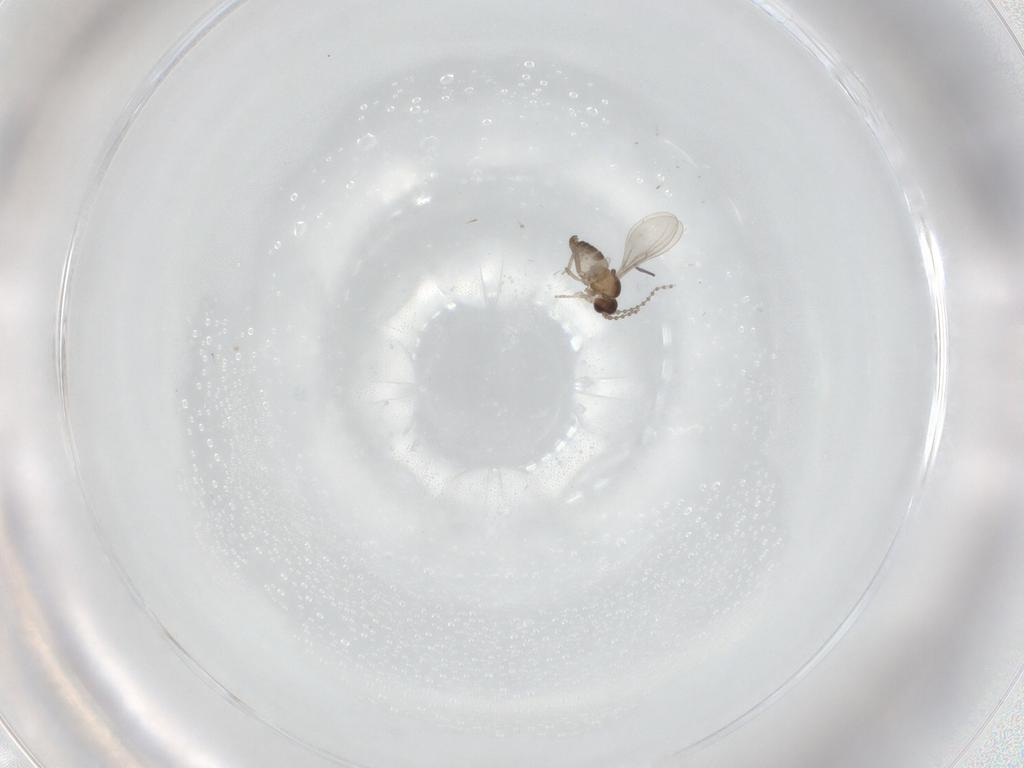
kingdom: Animalia
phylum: Arthropoda
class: Insecta
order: Diptera
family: Cecidomyiidae
